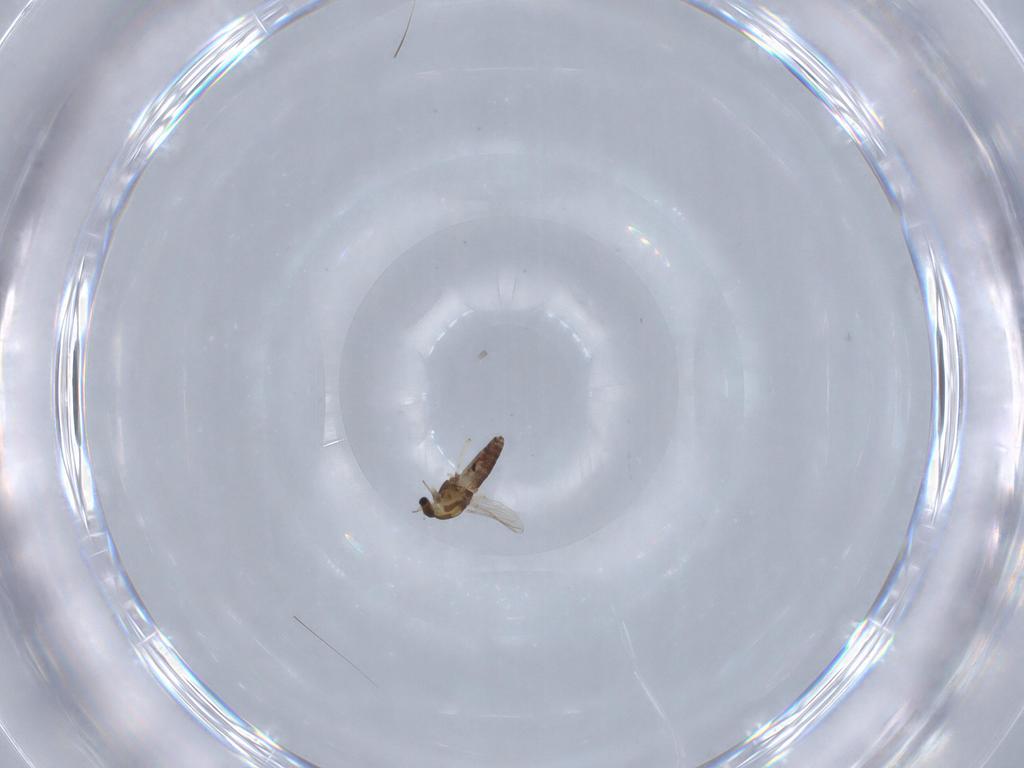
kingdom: Animalia
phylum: Arthropoda
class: Insecta
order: Diptera
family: Chironomidae
